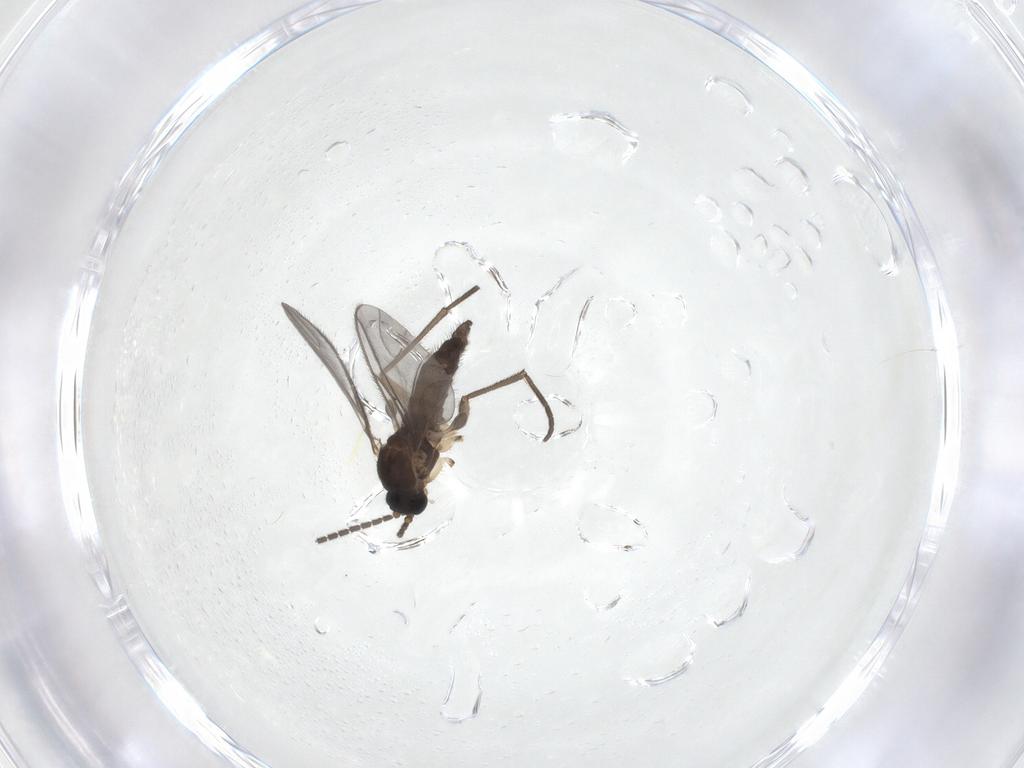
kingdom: Animalia
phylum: Arthropoda
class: Insecta
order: Diptera
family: Sciaridae
